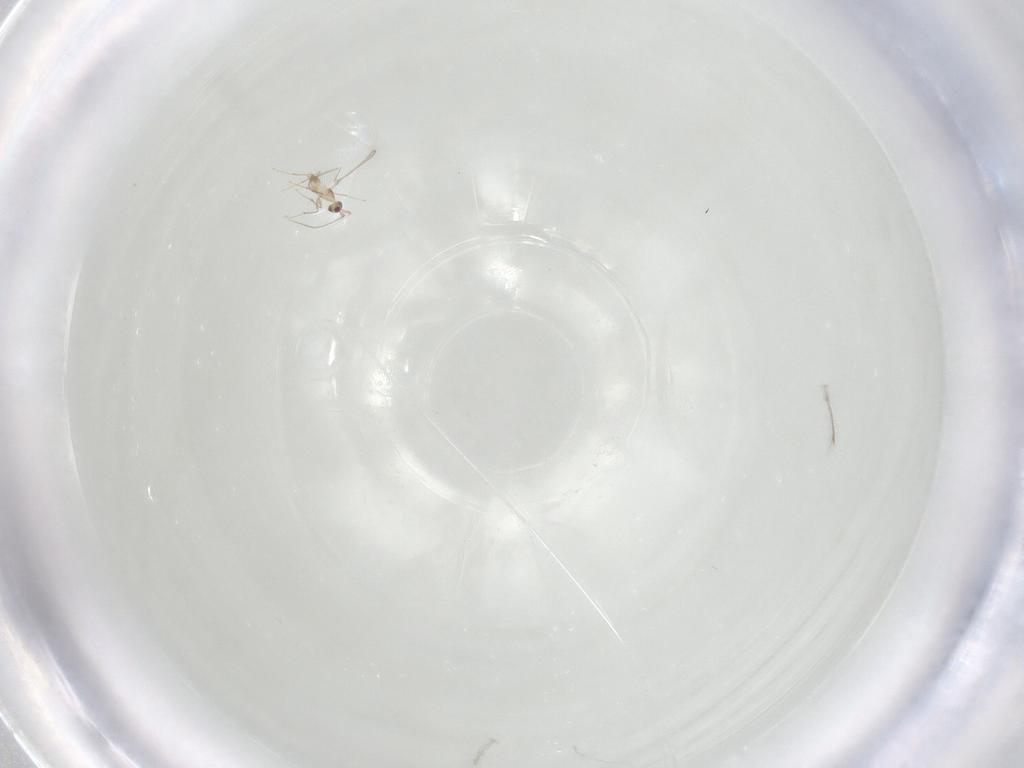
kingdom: Animalia
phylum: Arthropoda
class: Insecta
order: Hymenoptera
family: Mymaridae
